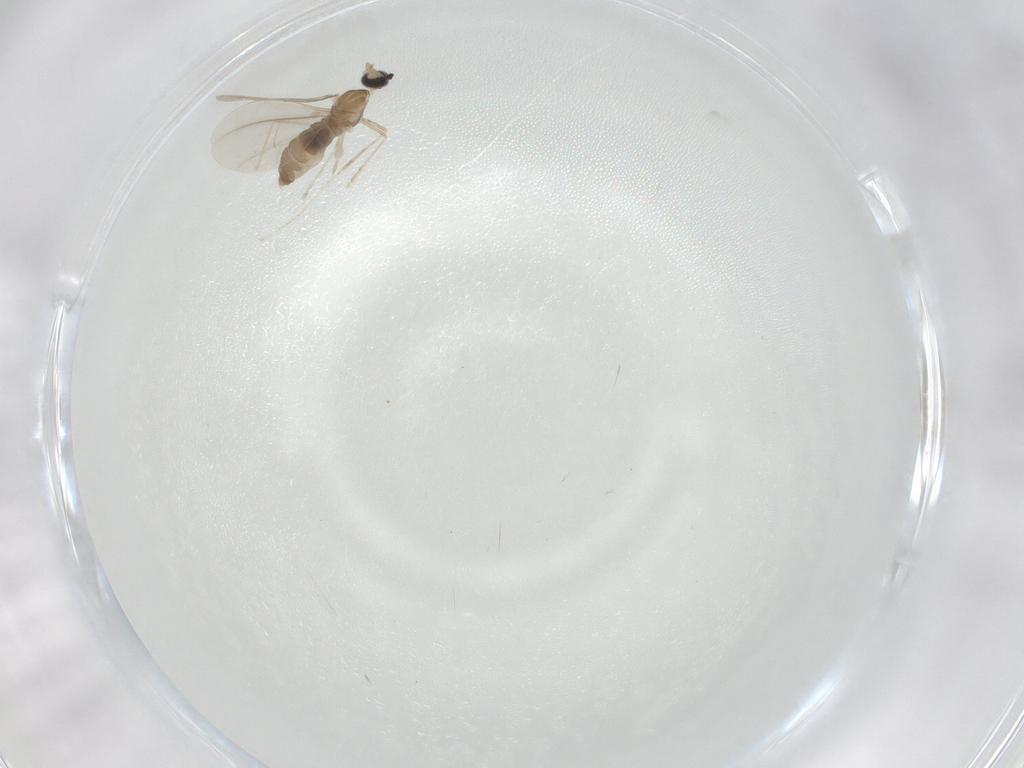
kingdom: Animalia
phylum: Arthropoda
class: Insecta
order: Diptera
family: Cecidomyiidae
